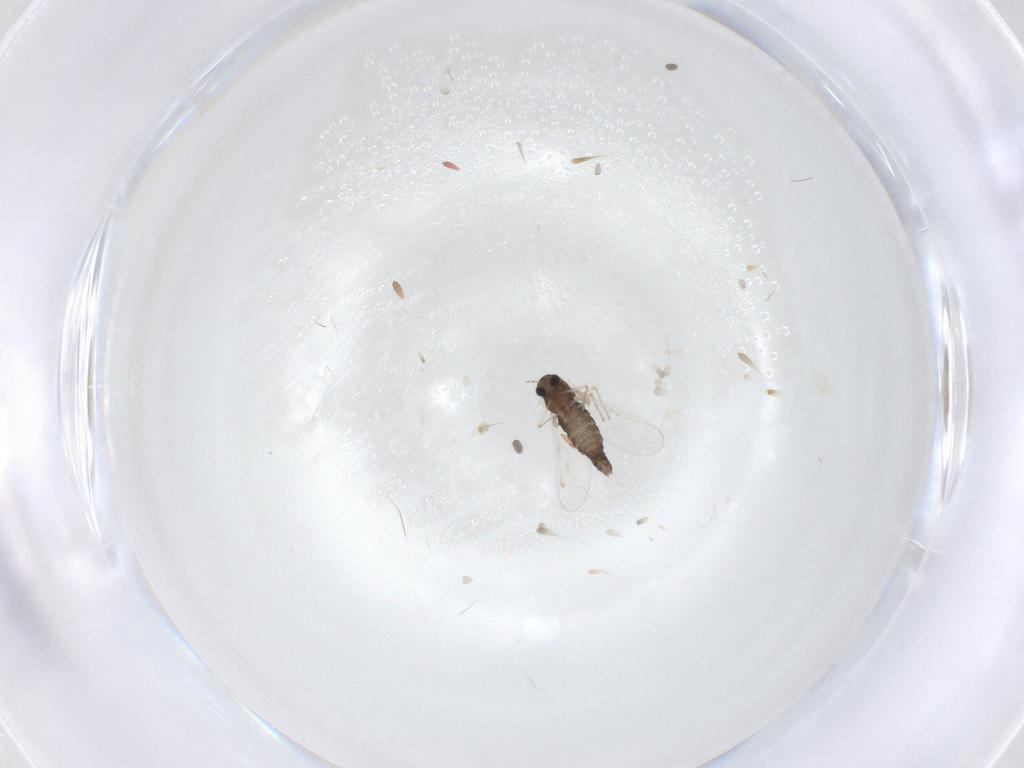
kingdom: Animalia
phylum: Arthropoda
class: Insecta
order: Diptera
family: Chironomidae
